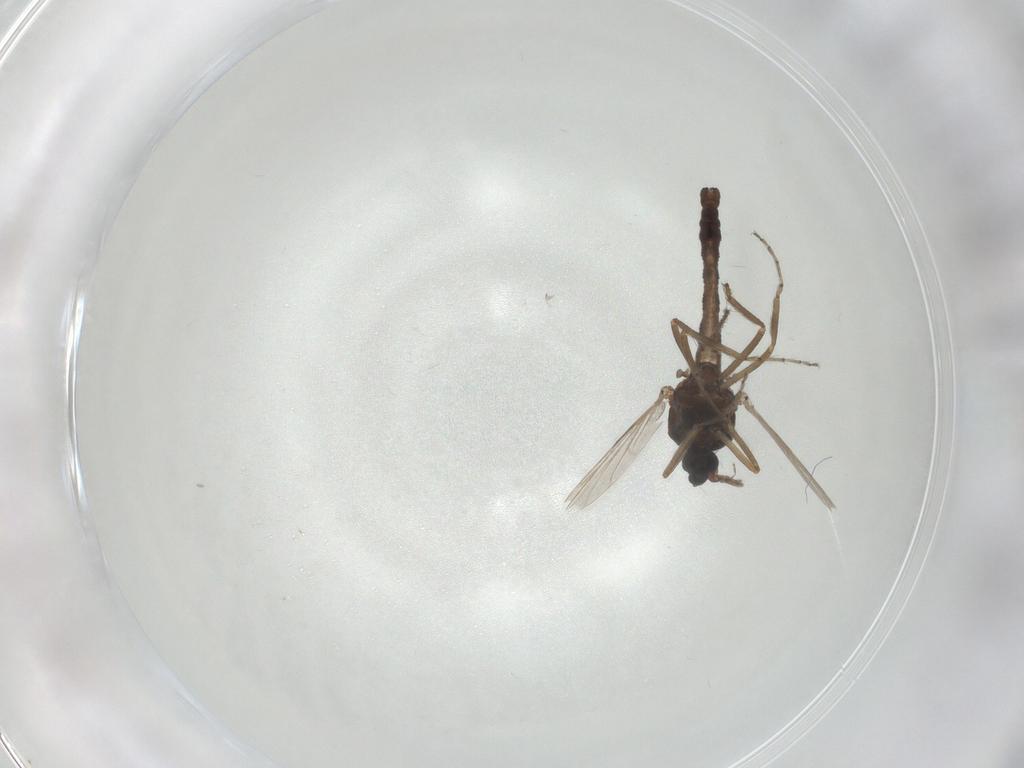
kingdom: Animalia
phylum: Arthropoda
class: Insecta
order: Diptera
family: Ceratopogonidae
